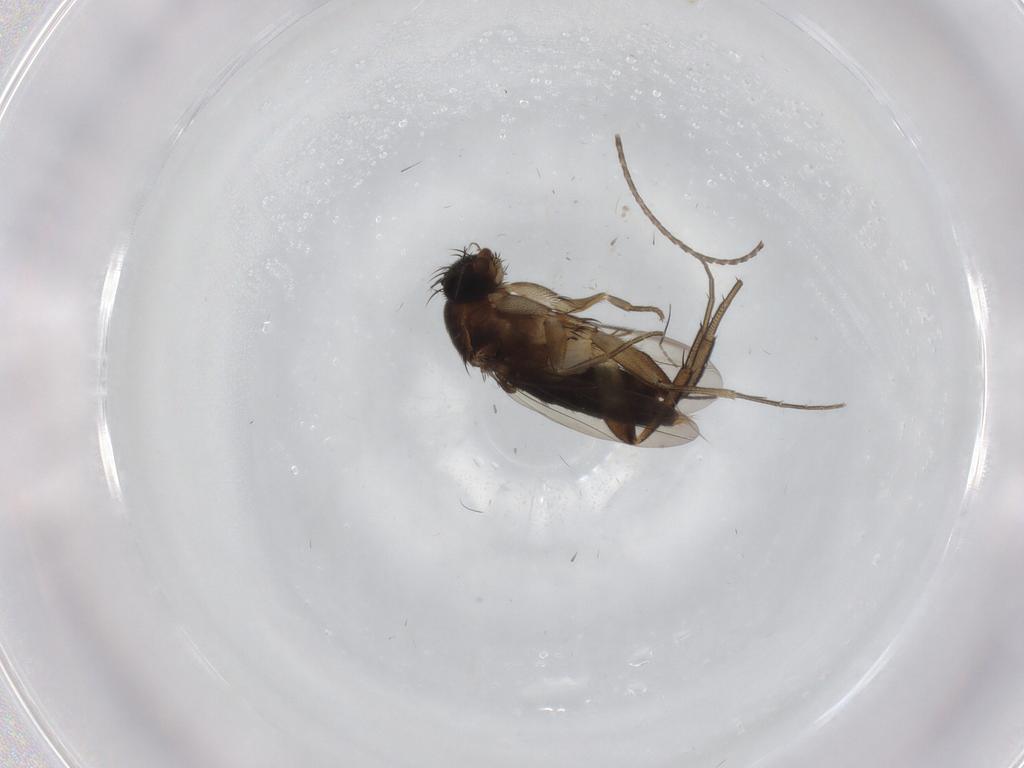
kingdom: Animalia
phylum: Arthropoda
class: Insecta
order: Diptera
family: Phoridae
